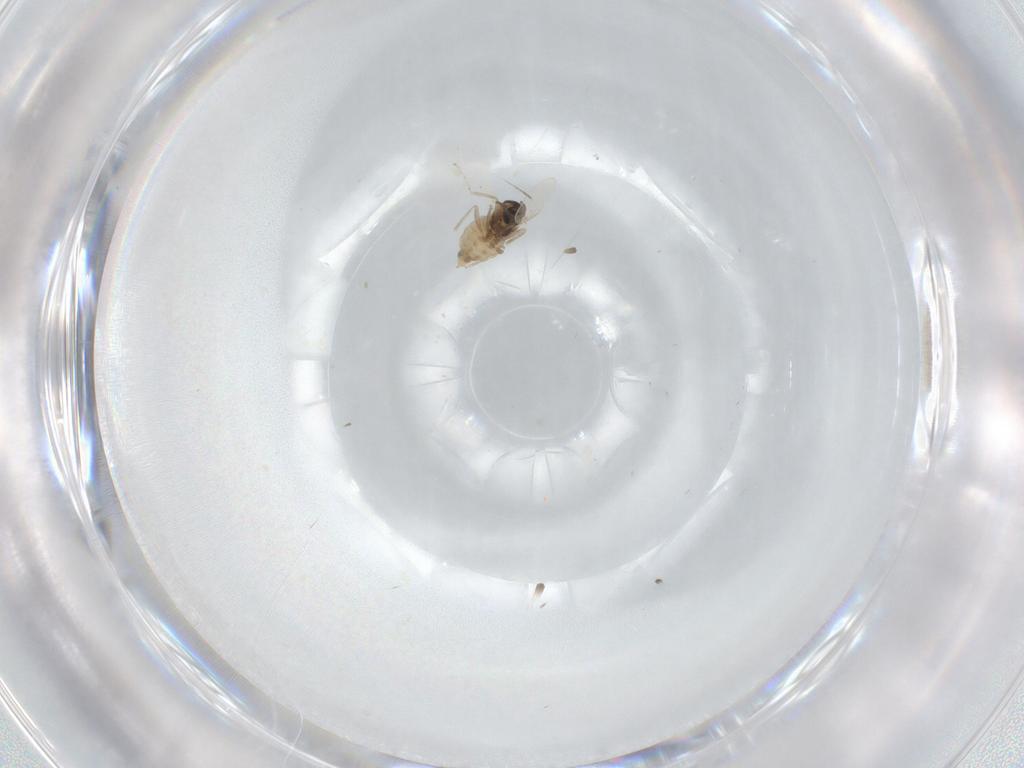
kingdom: Animalia
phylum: Arthropoda
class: Insecta
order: Diptera
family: Cecidomyiidae
